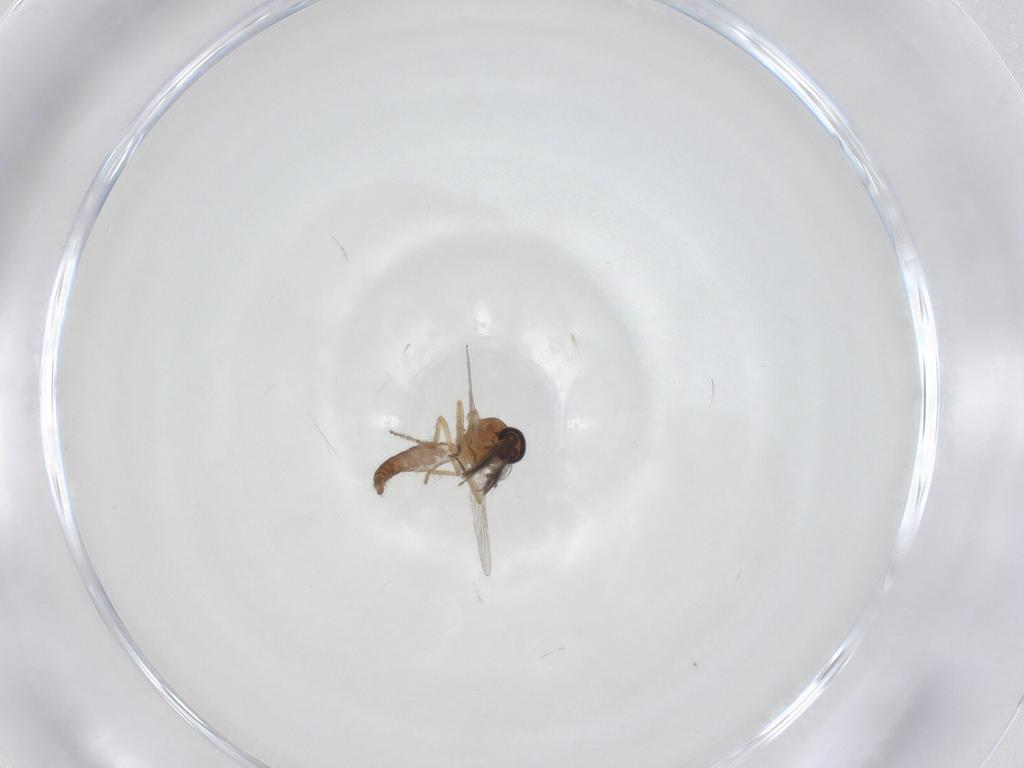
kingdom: Animalia
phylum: Arthropoda
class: Insecta
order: Diptera
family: Ceratopogonidae
